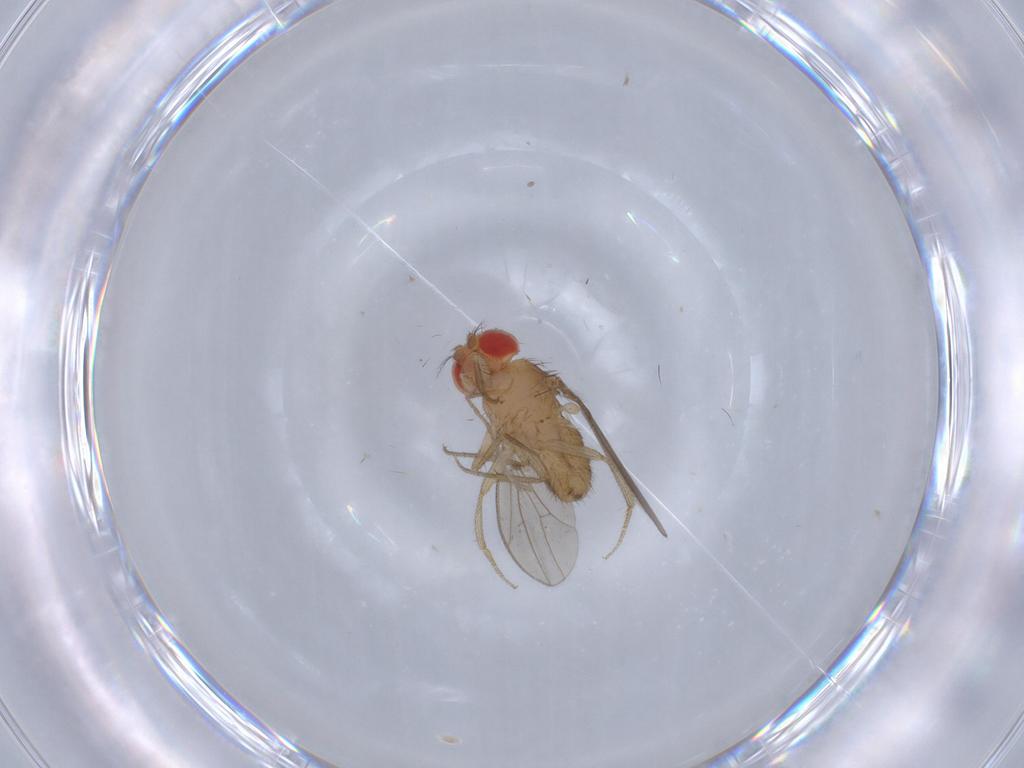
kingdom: Animalia
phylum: Arthropoda
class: Insecta
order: Diptera
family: Drosophilidae
